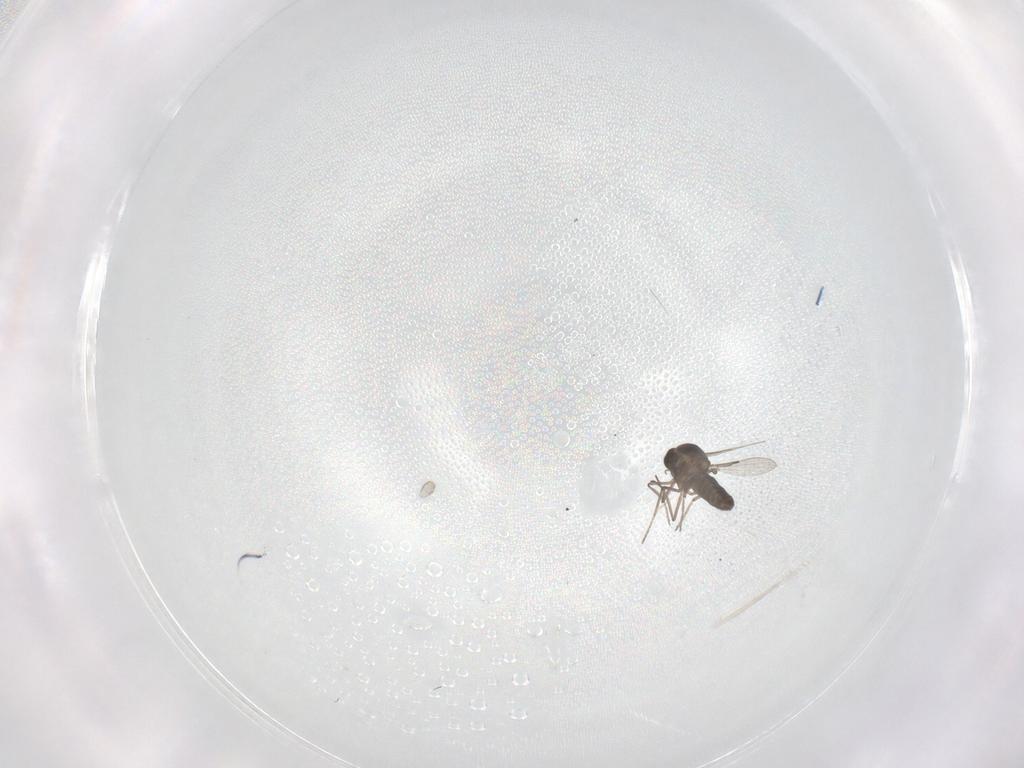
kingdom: Animalia
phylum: Arthropoda
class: Insecta
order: Diptera
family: Ceratopogonidae
